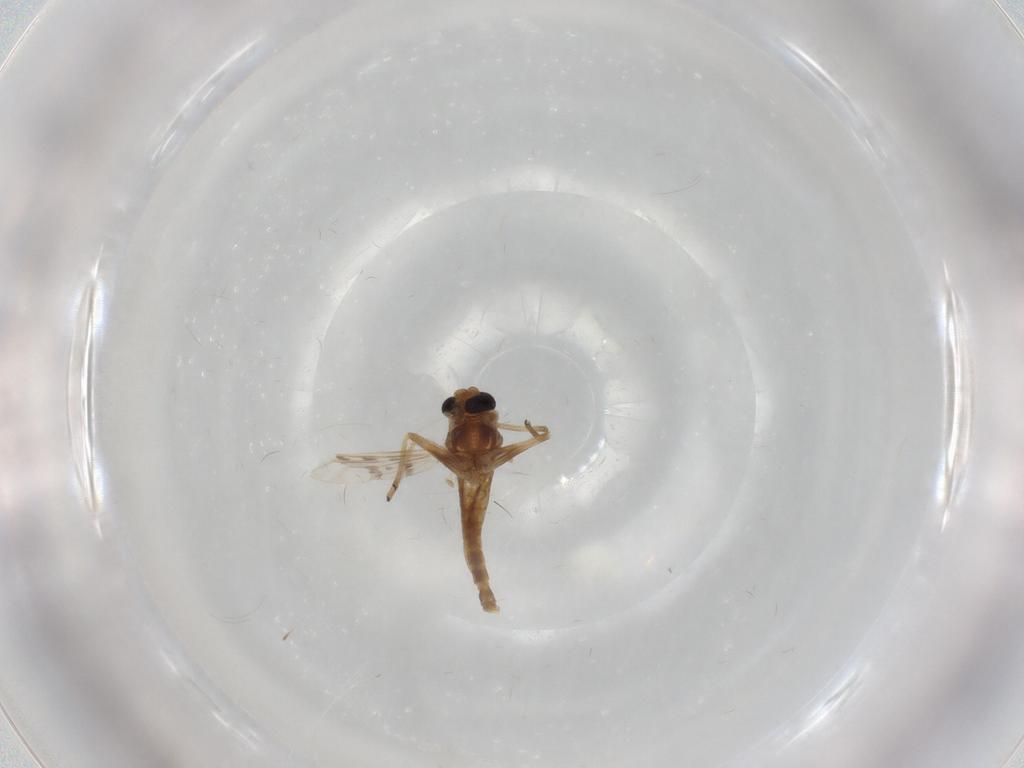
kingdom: Animalia
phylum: Arthropoda
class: Insecta
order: Diptera
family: Chironomidae
